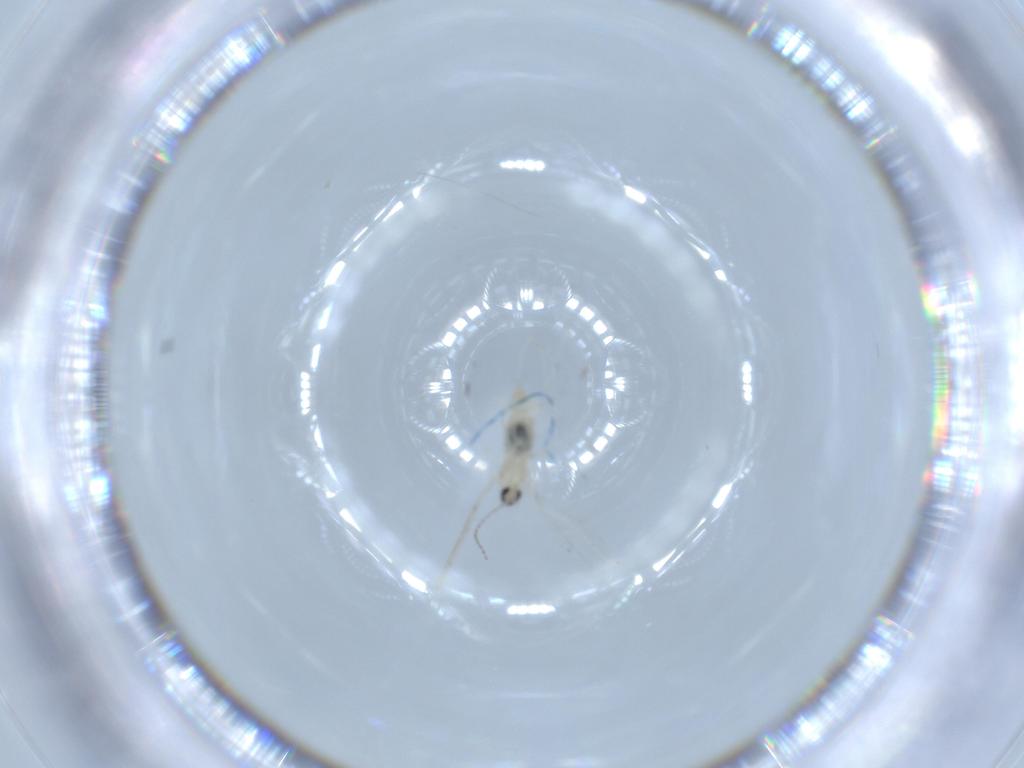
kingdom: Animalia
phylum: Arthropoda
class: Insecta
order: Diptera
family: Cecidomyiidae
